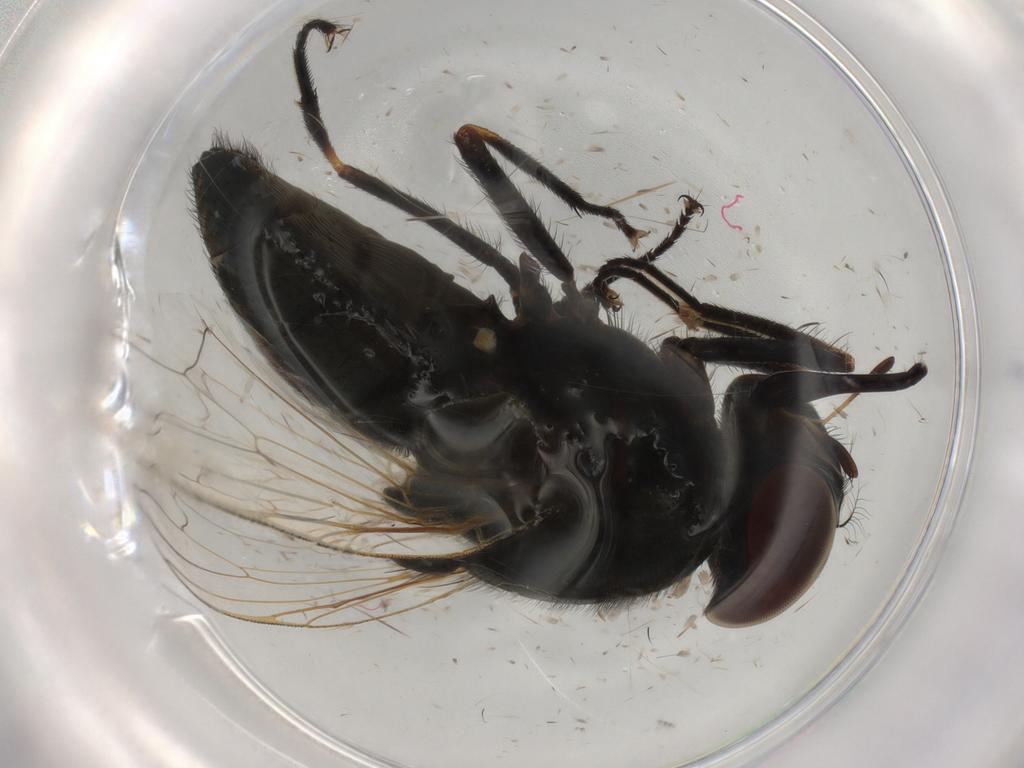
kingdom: Animalia
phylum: Arthropoda
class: Insecta
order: Diptera
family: Muscidae
